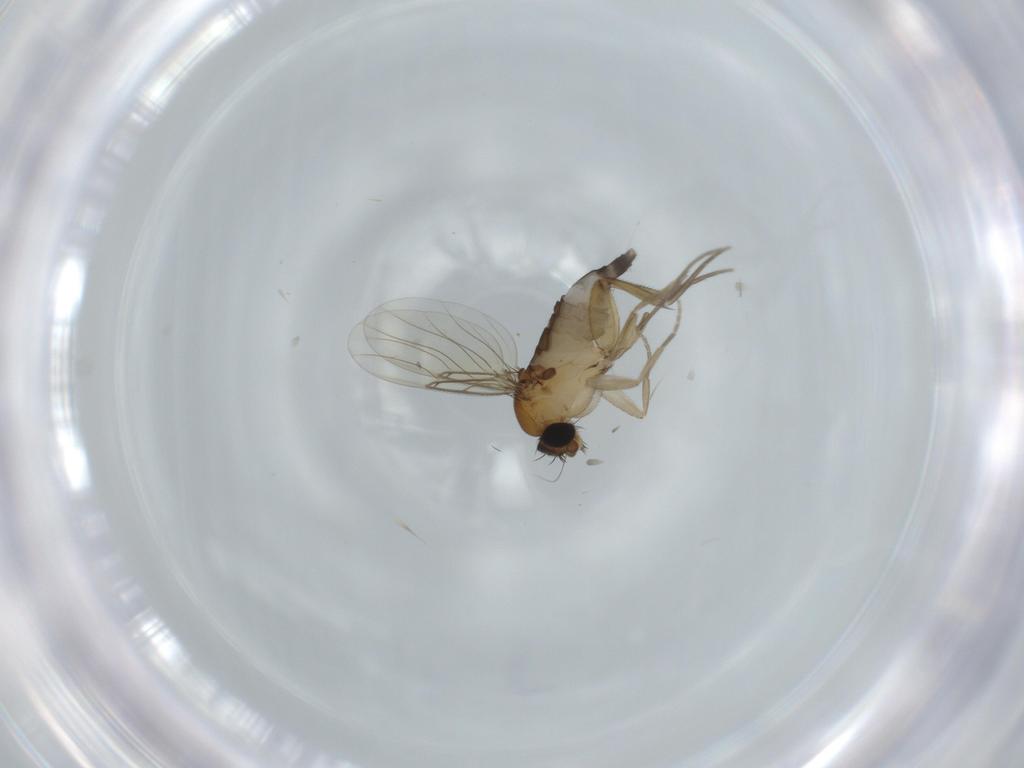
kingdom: Animalia
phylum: Arthropoda
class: Insecta
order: Diptera
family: Phoridae
